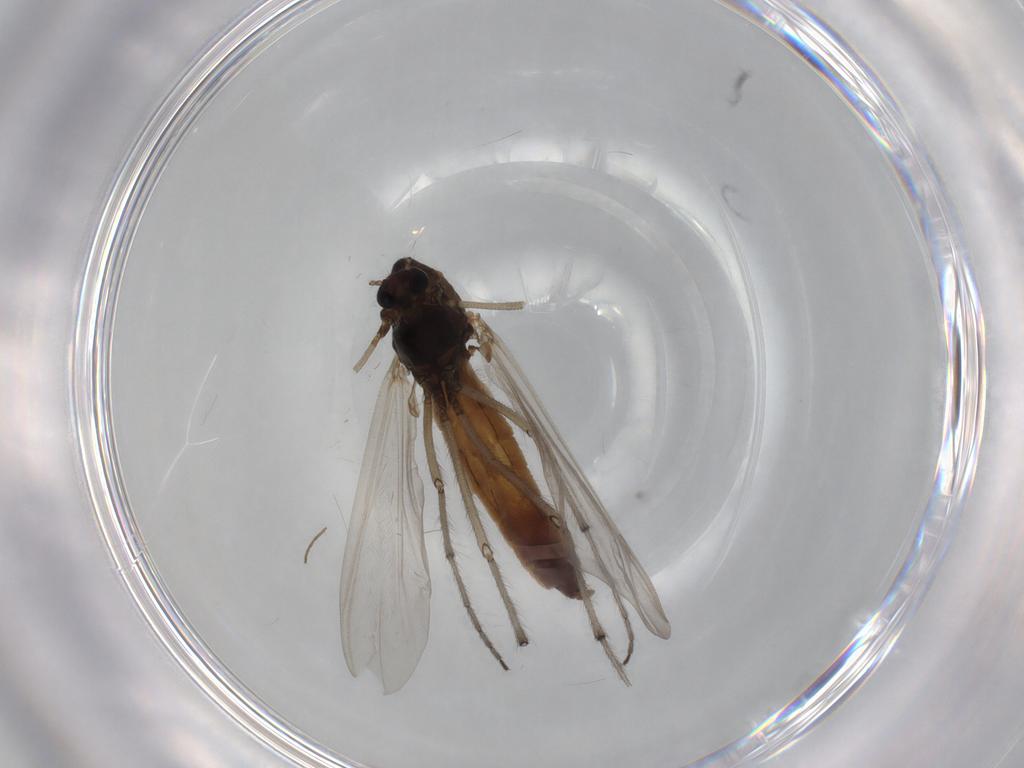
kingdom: Animalia
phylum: Arthropoda
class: Insecta
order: Diptera
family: Chironomidae
